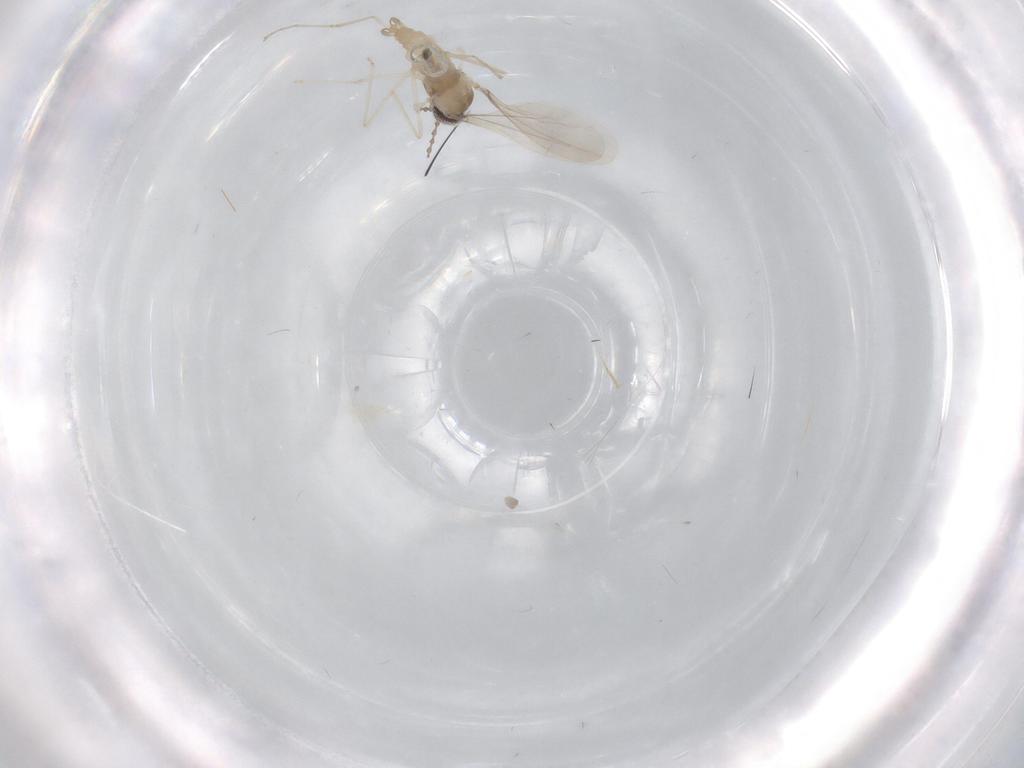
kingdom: Animalia
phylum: Arthropoda
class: Insecta
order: Diptera
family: Cecidomyiidae
